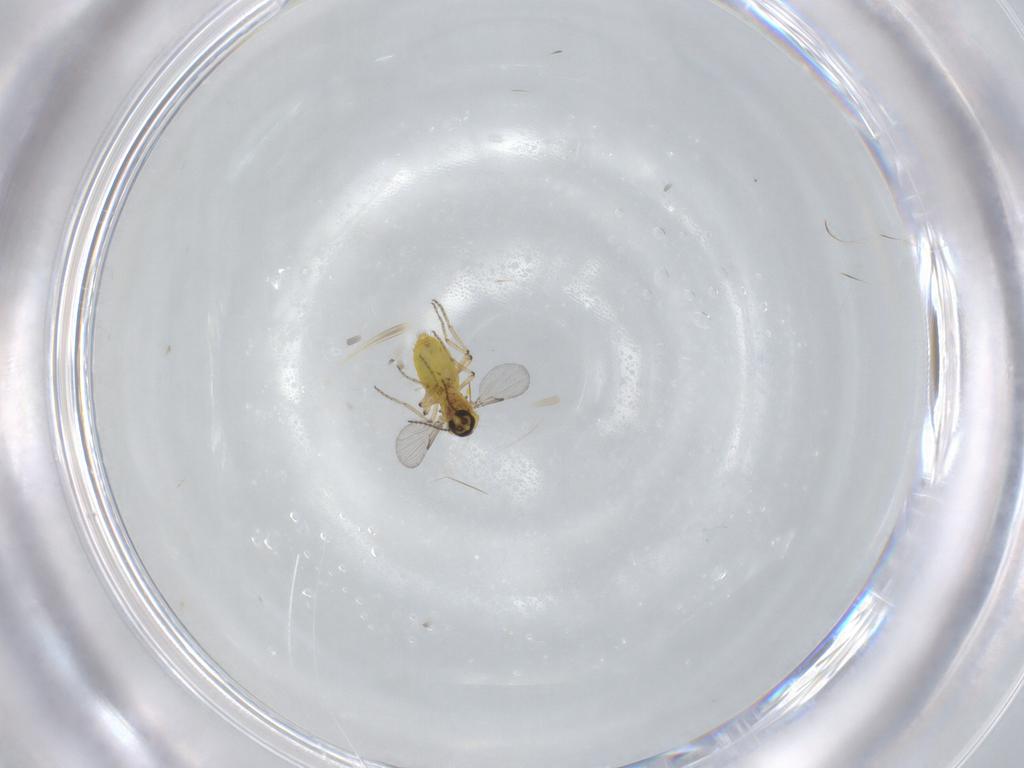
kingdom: Animalia
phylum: Arthropoda
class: Insecta
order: Diptera
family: Ceratopogonidae
